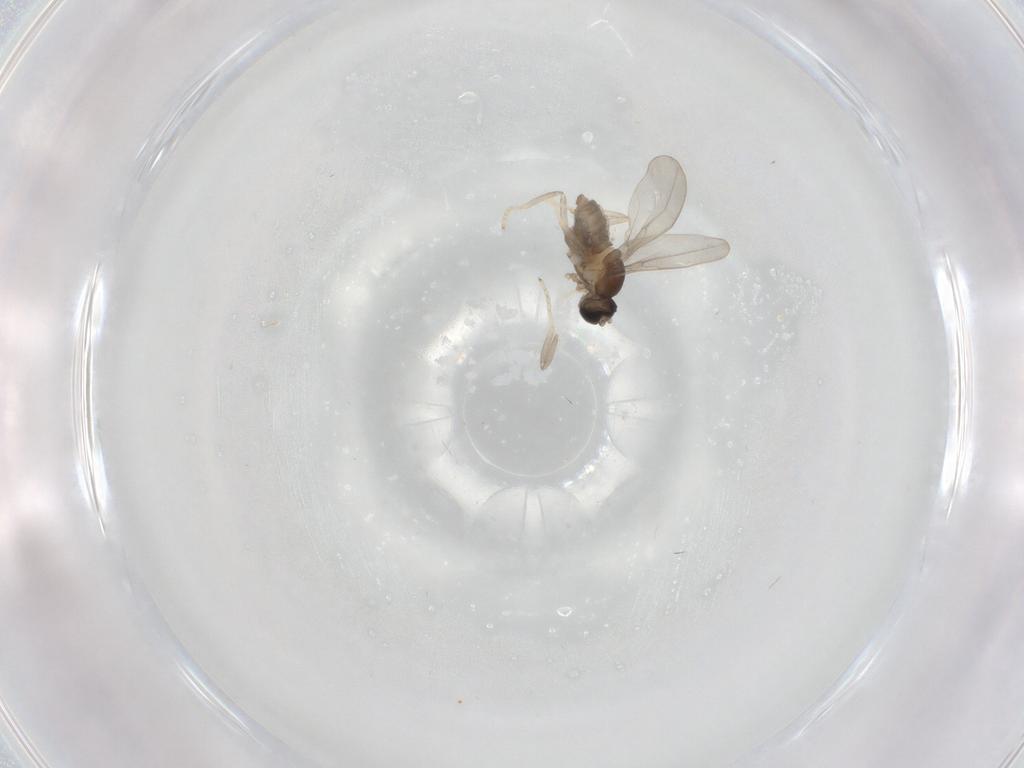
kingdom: Animalia
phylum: Arthropoda
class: Insecta
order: Diptera
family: Cecidomyiidae
